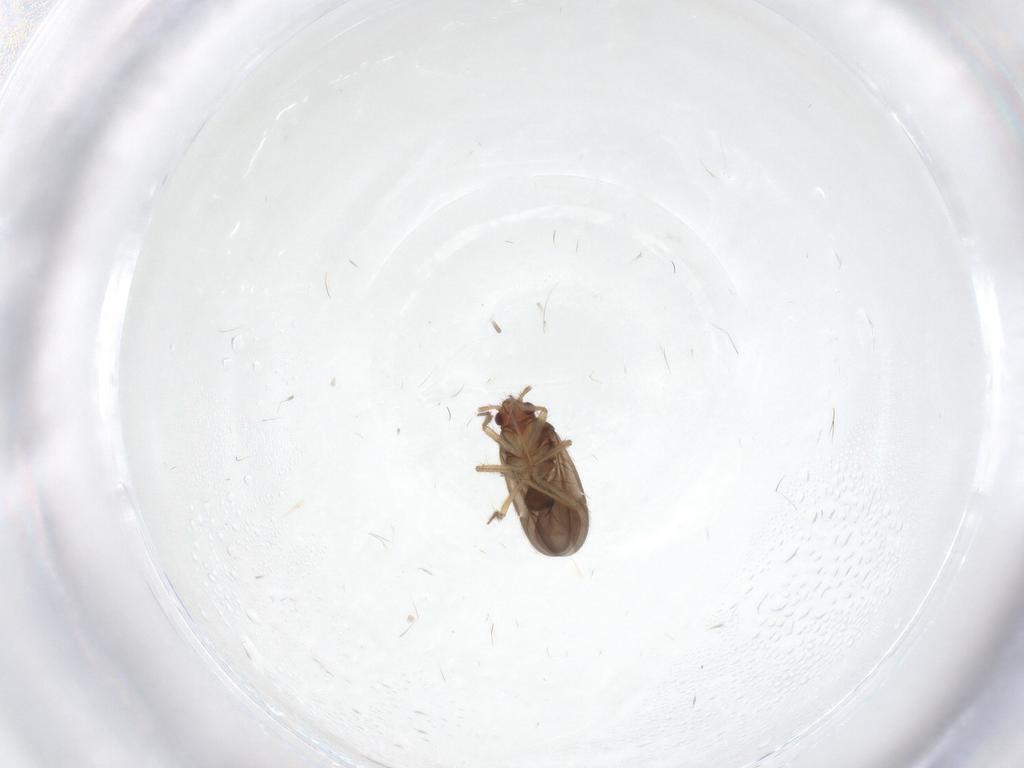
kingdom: Animalia
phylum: Arthropoda
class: Insecta
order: Hemiptera
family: Ceratocombidae
